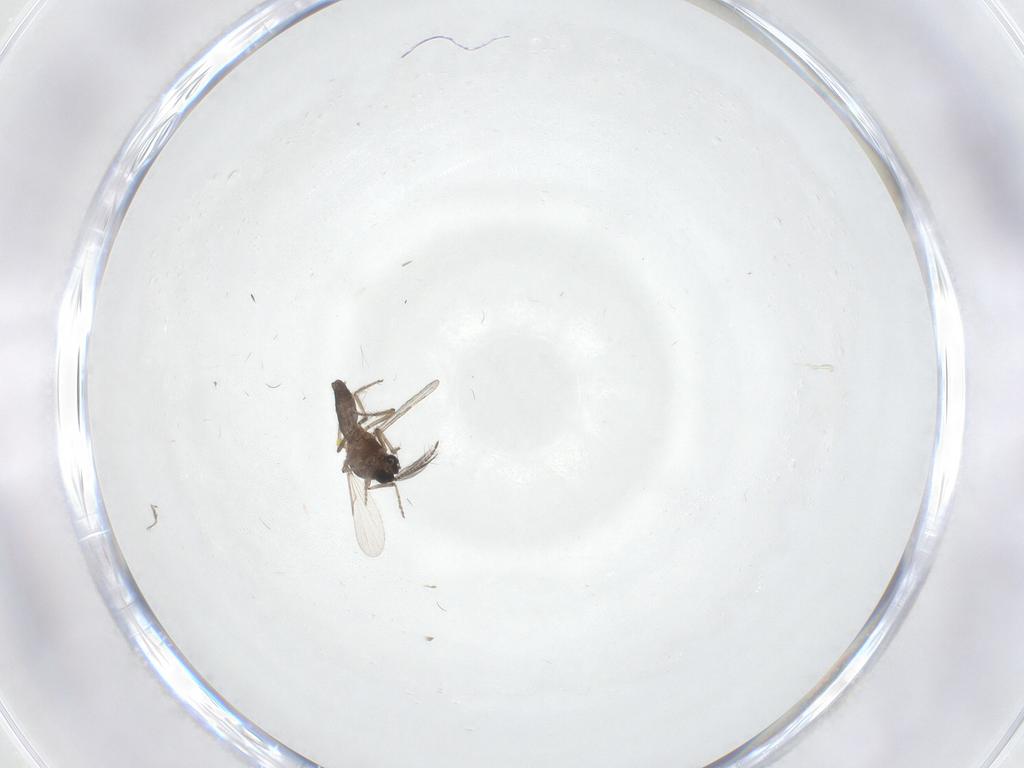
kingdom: Animalia
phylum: Arthropoda
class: Insecta
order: Diptera
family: Ceratopogonidae
